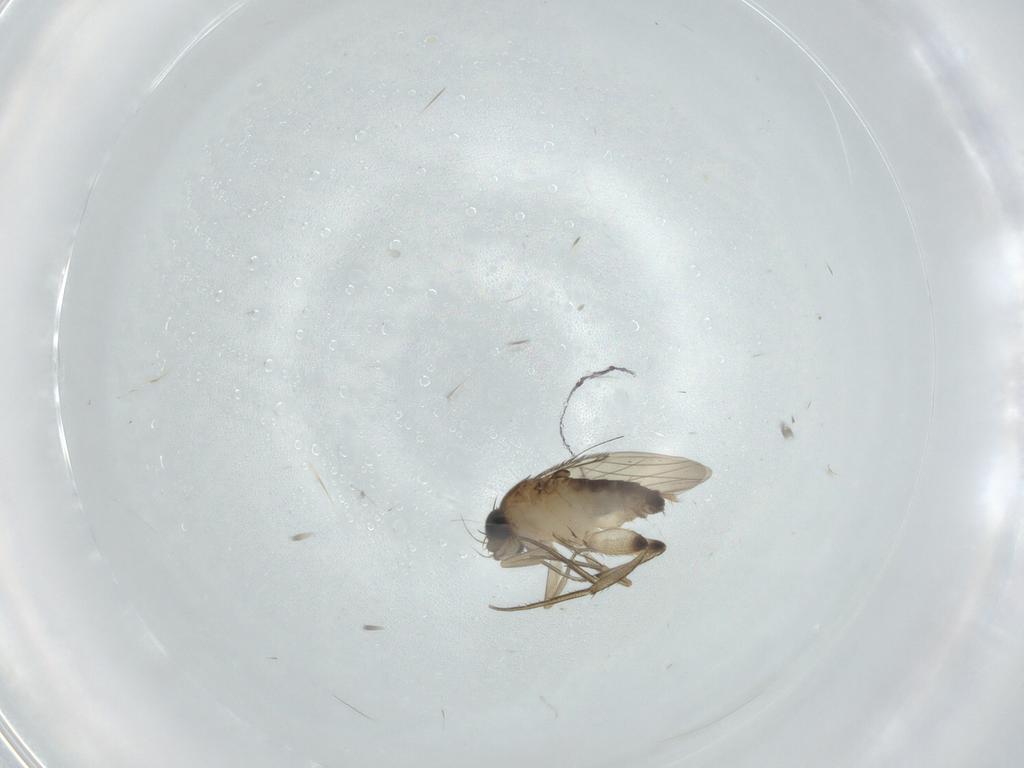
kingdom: Animalia
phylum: Arthropoda
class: Insecta
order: Diptera
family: Phoridae
